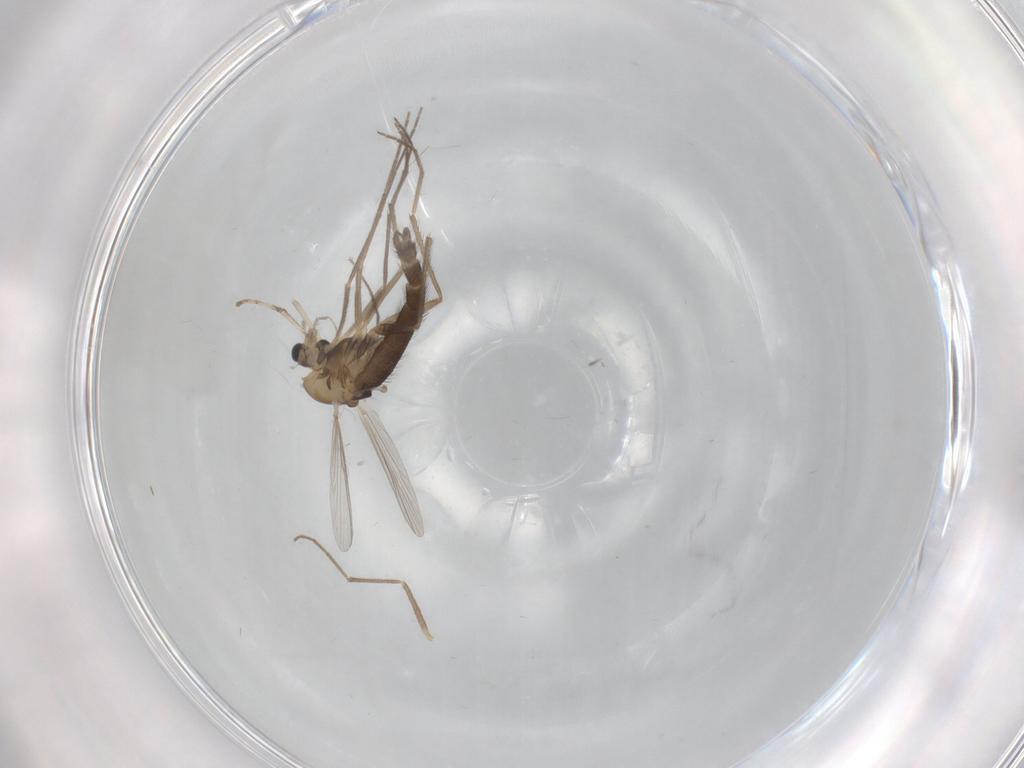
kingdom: Animalia
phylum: Arthropoda
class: Insecta
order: Diptera
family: Chironomidae
